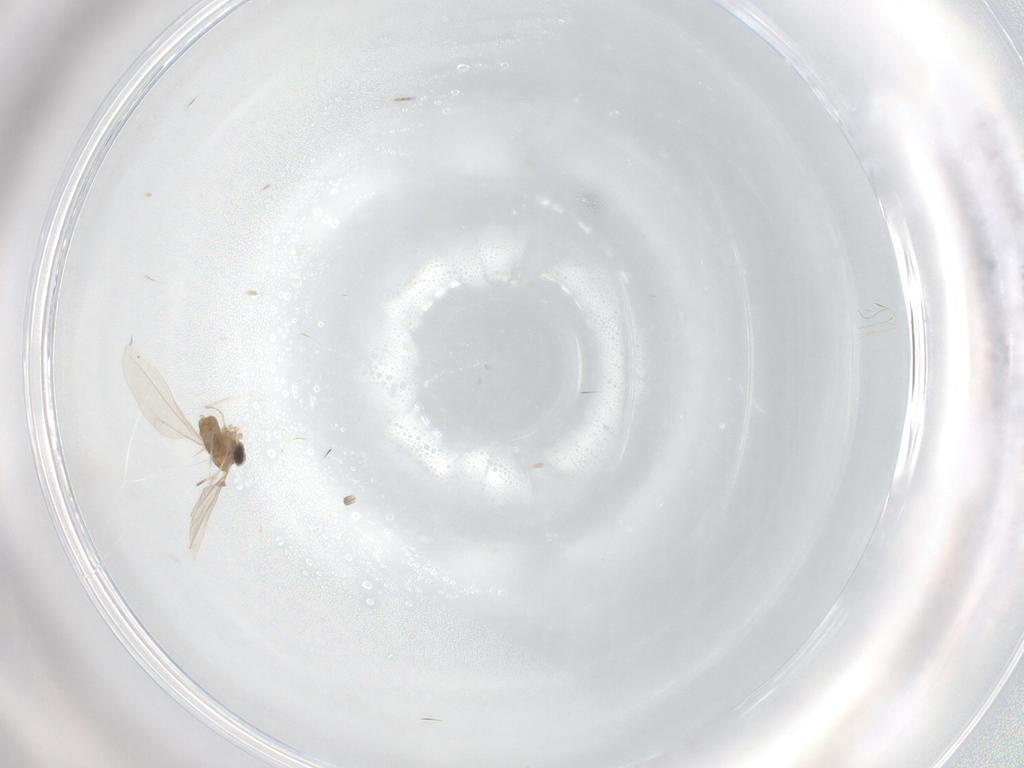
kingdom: Animalia
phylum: Arthropoda
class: Insecta
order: Diptera
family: Cecidomyiidae
